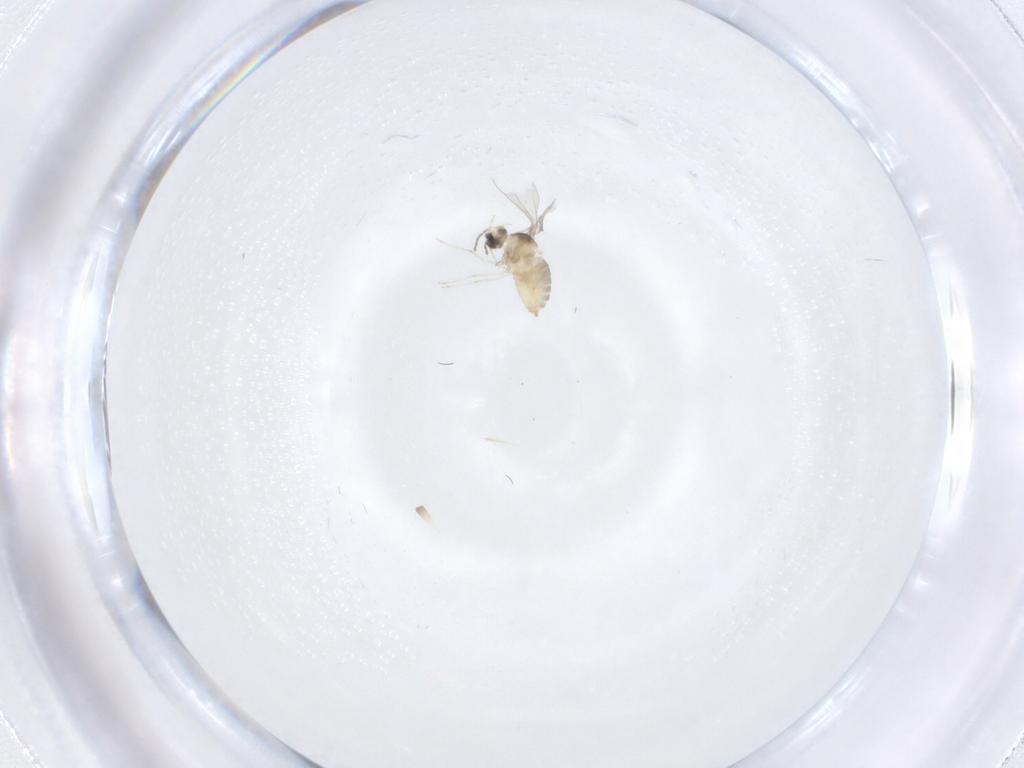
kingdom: Animalia
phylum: Arthropoda
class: Insecta
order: Diptera
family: Cecidomyiidae
